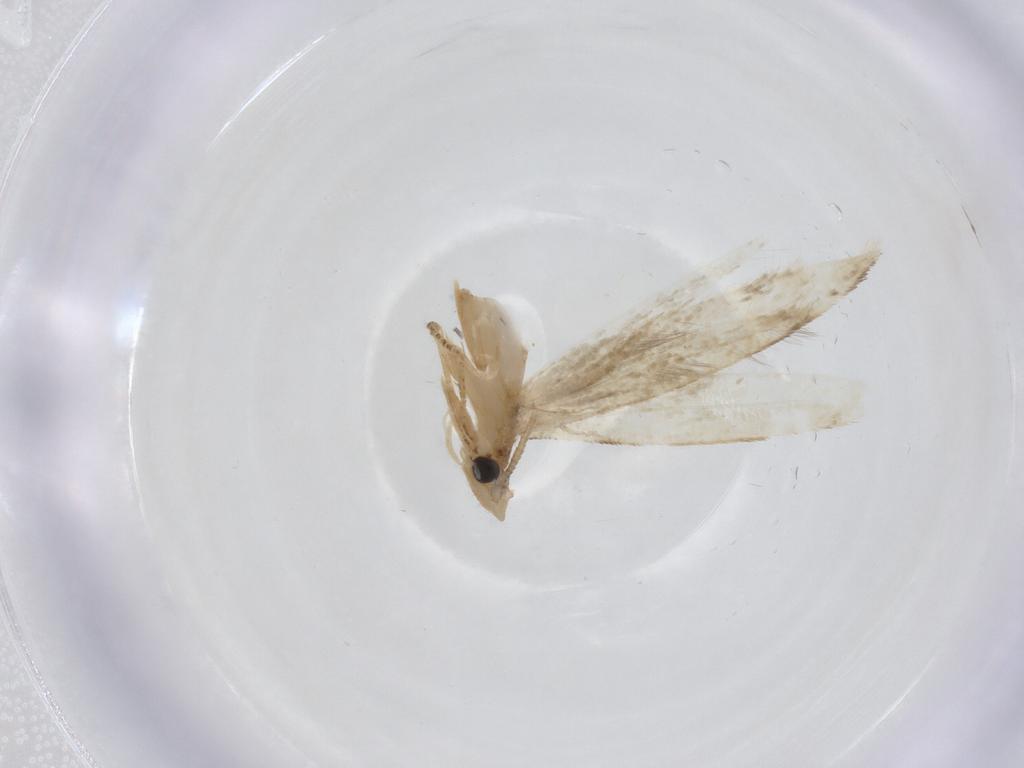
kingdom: Animalia
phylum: Arthropoda
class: Insecta
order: Lepidoptera
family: Tineidae
